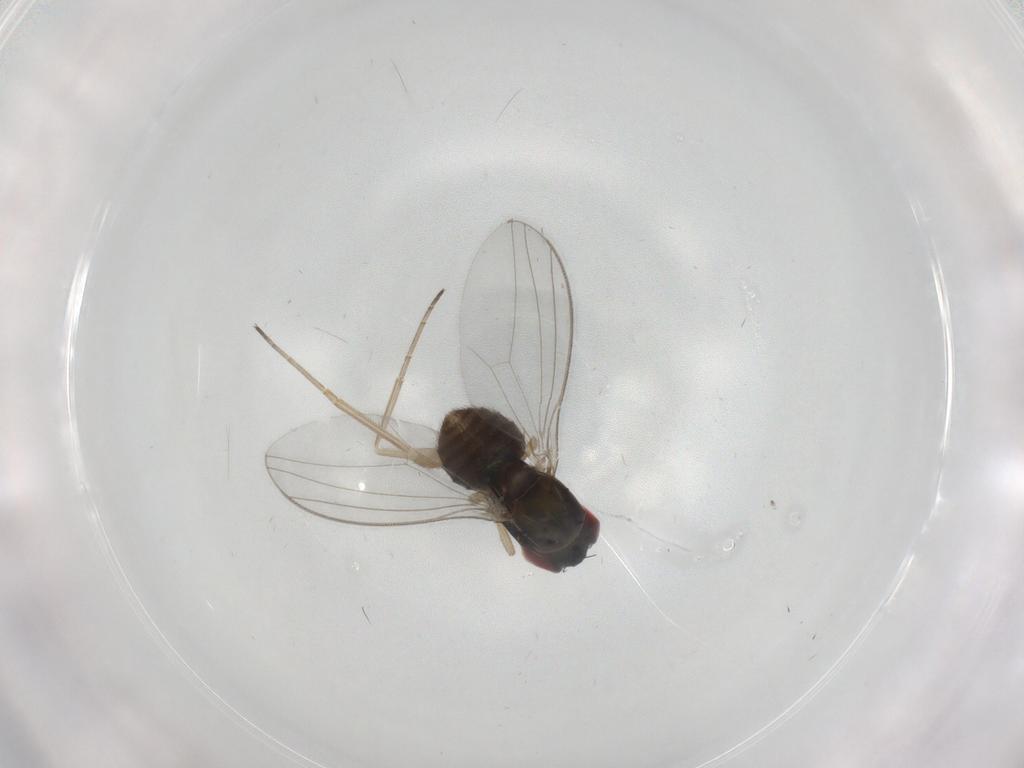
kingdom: Animalia
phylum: Arthropoda
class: Insecta
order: Diptera
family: Dolichopodidae
